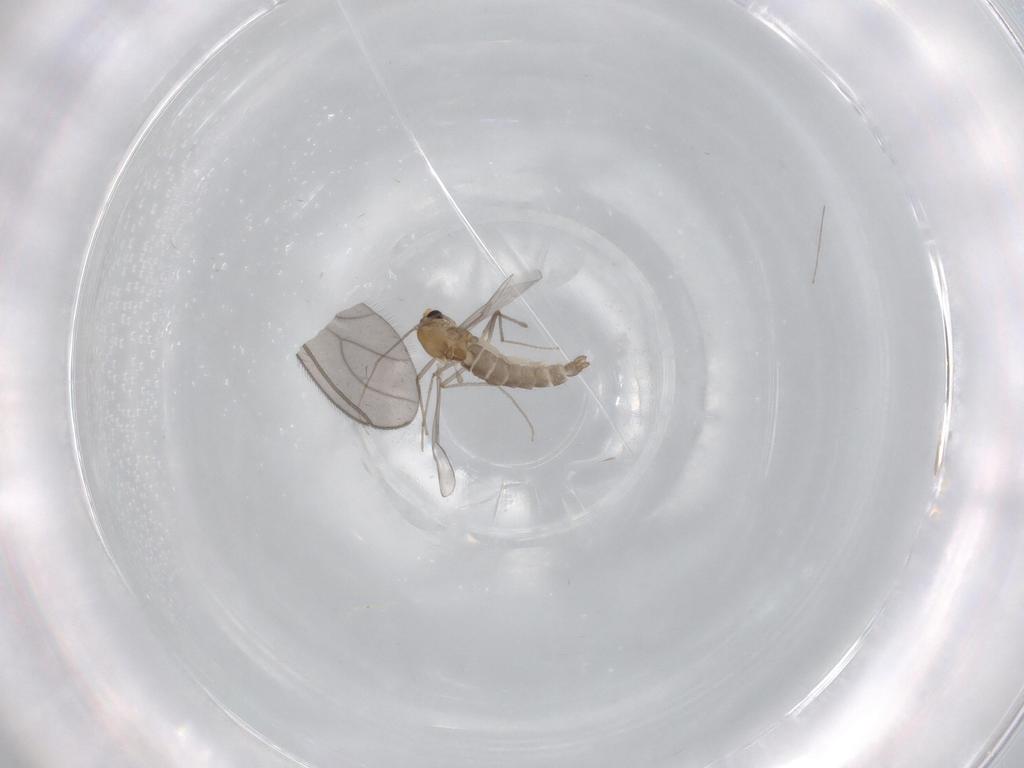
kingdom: Animalia
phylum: Arthropoda
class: Insecta
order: Diptera
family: Chironomidae
